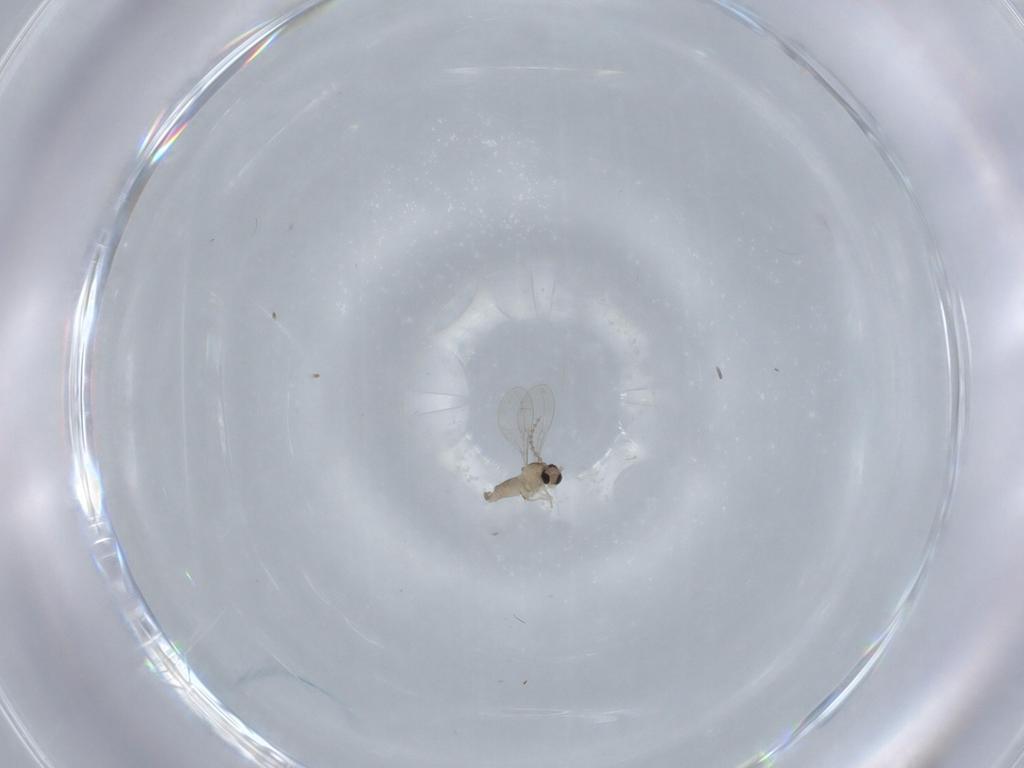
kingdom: Animalia
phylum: Arthropoda
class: Insecta
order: Diptera
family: Cecidomyiidae
